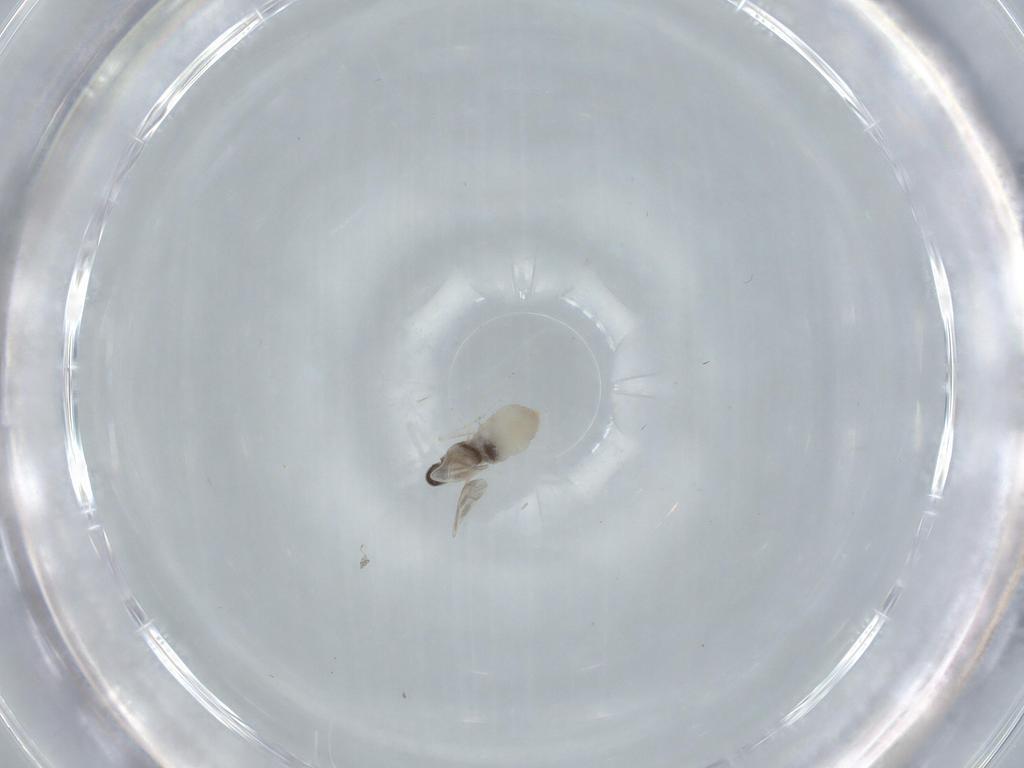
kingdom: Animalia
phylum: Arthropoda
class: Insecta
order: Diptera
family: Cecidomyiidae
